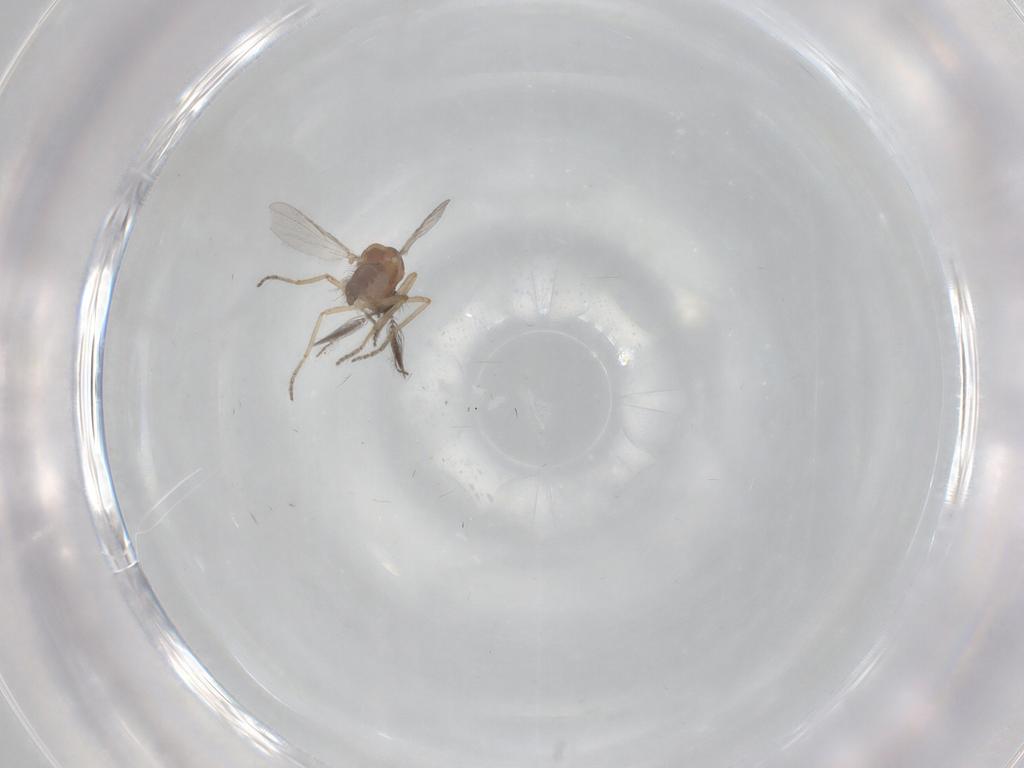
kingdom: Animalia
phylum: Arthropoda
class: Insecta
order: Diptera
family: Ceratopogonidae
